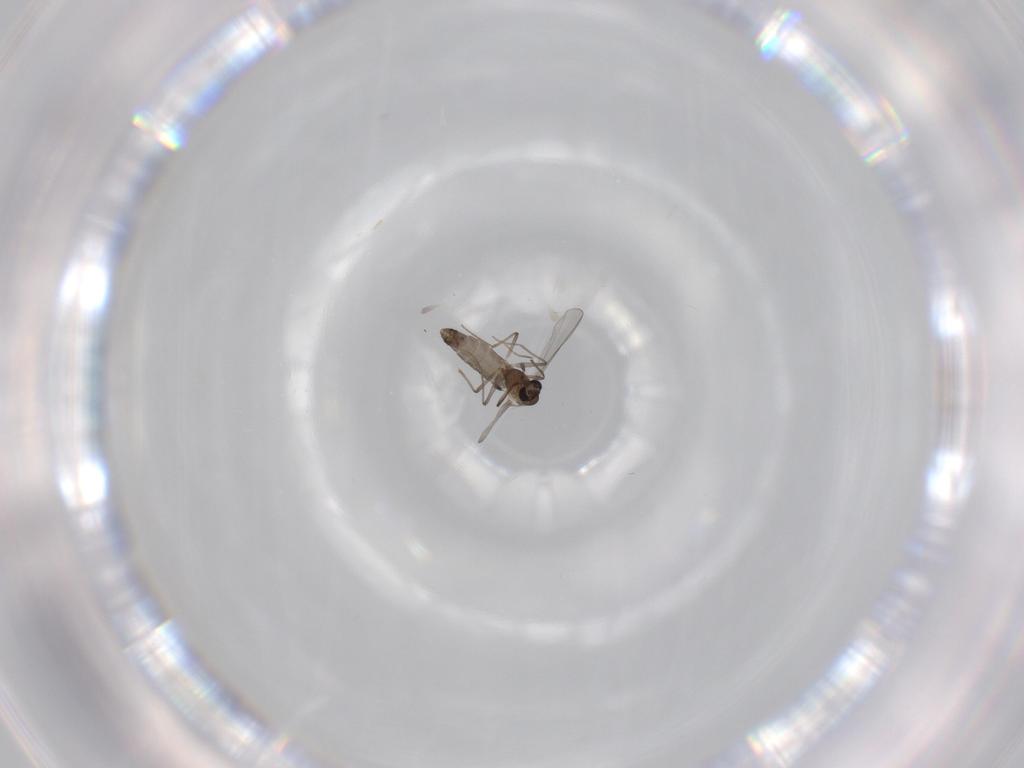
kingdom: Animalia
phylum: Arthropoda
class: Insecta
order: Diptera
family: Chironomidae
